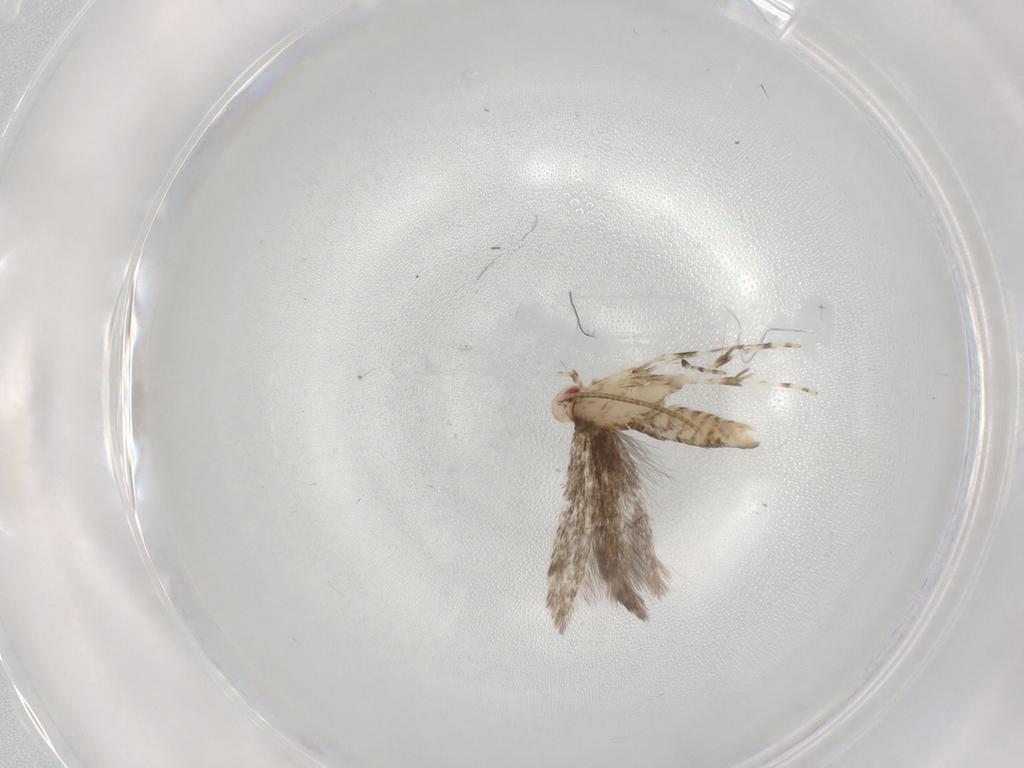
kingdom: Animalia
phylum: Arthropoda
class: Insecta
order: Lepidoptera
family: Gracillariidae
